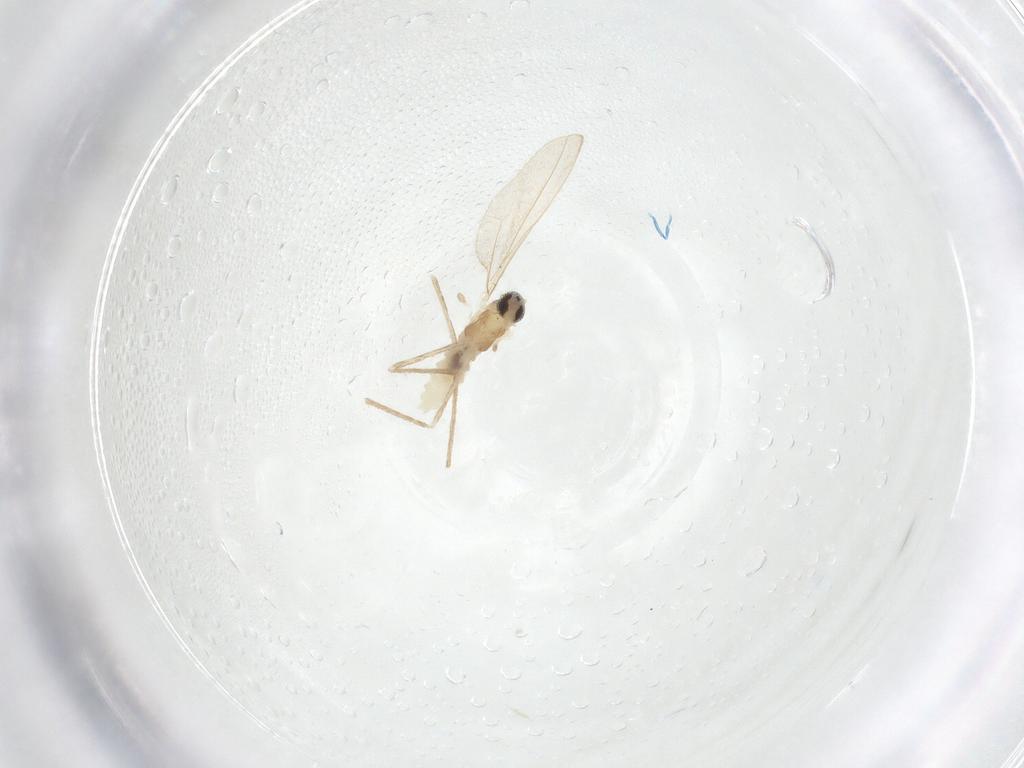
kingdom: Animalia
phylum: Arthropoda
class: Insecta
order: Diptera
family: Cecidomyiidae
